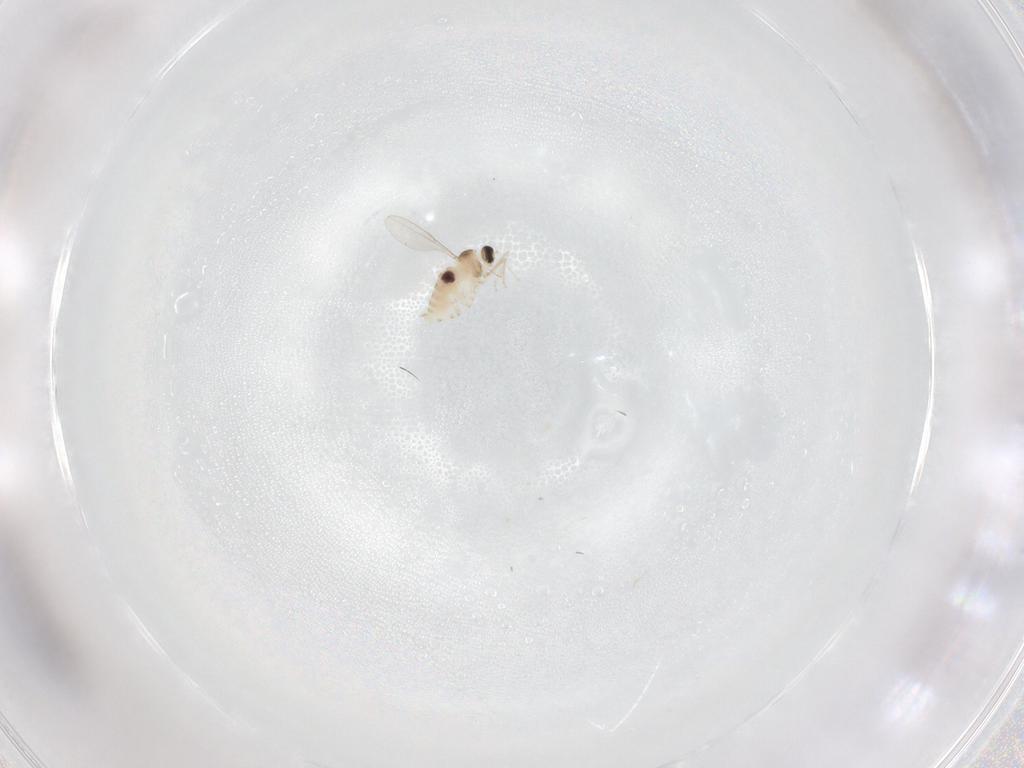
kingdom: Animalia
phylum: Arthropoda
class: Insecta
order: Diptera
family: Cecidomyiidae
